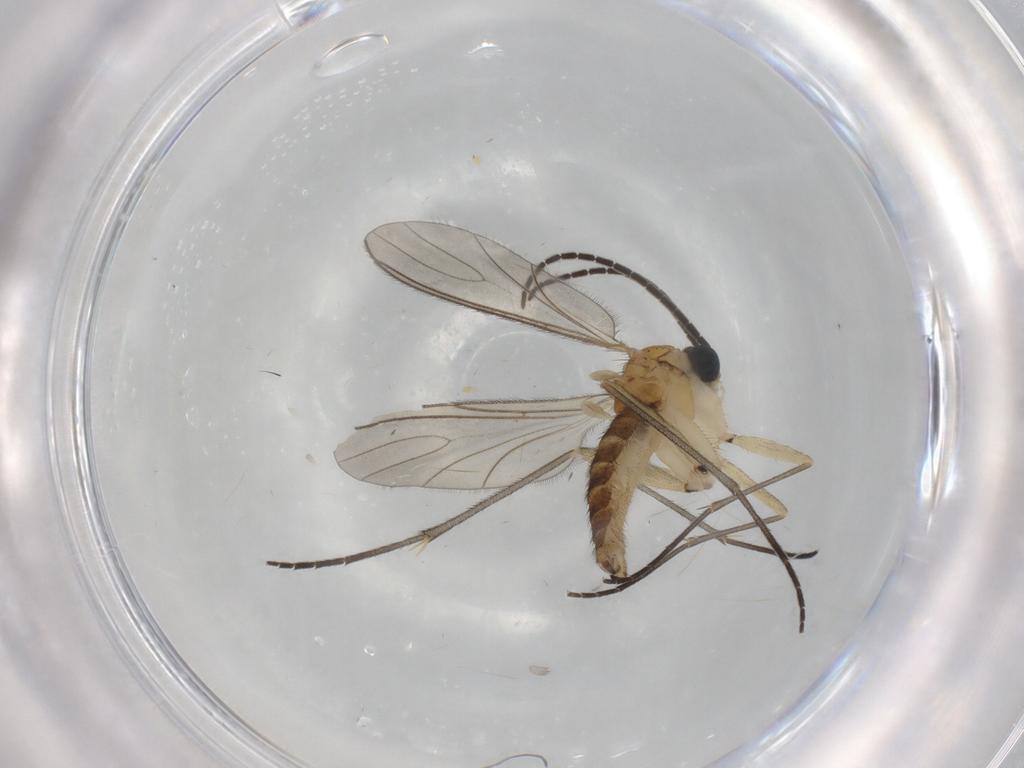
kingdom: Animalia
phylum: Arthropoda
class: Insecta
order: Diptera
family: Sciaridae
